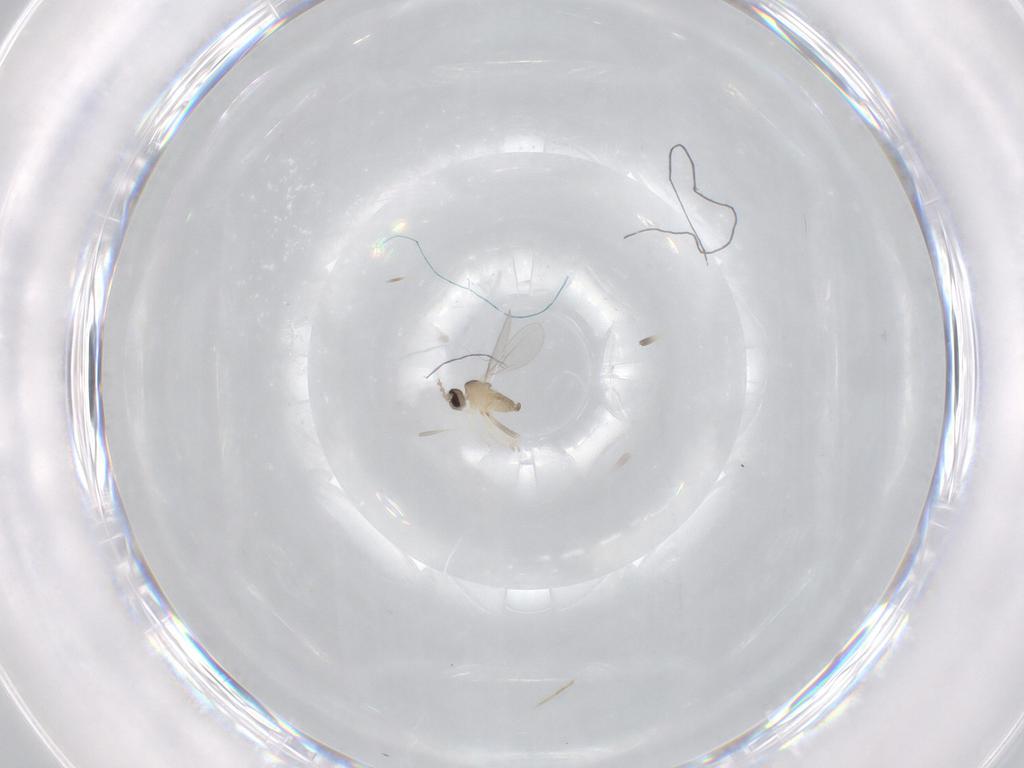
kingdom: Animalia
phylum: Arthropoda
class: Insecta
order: Diptera
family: Cecidomyiidae
